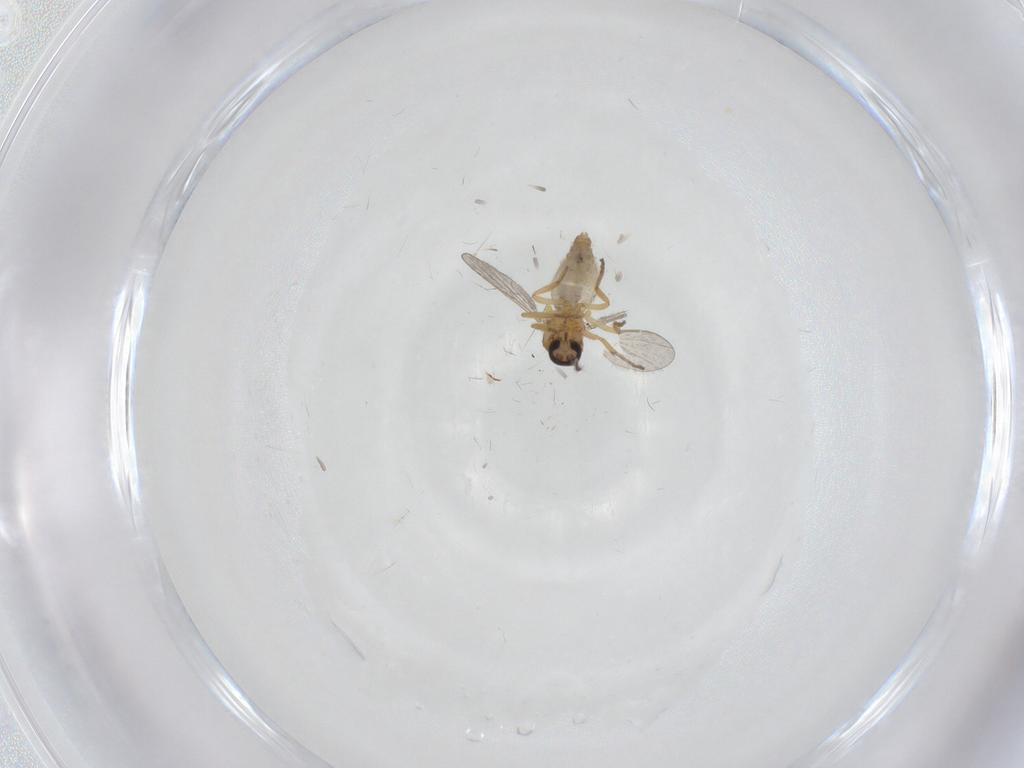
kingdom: Animalia
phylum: Arthropoda
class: Insecta
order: Diptera
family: Ceratopogonidae
